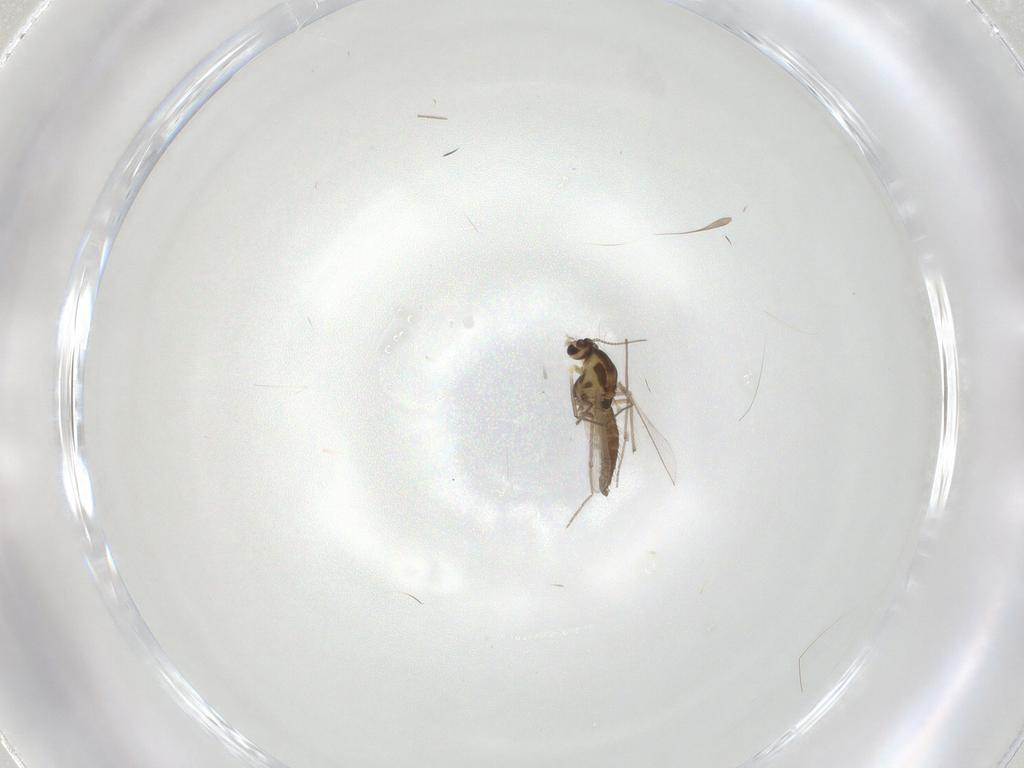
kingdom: Animalia
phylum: Arthropoda
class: Insecta
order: Diptera
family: Chironomidae
